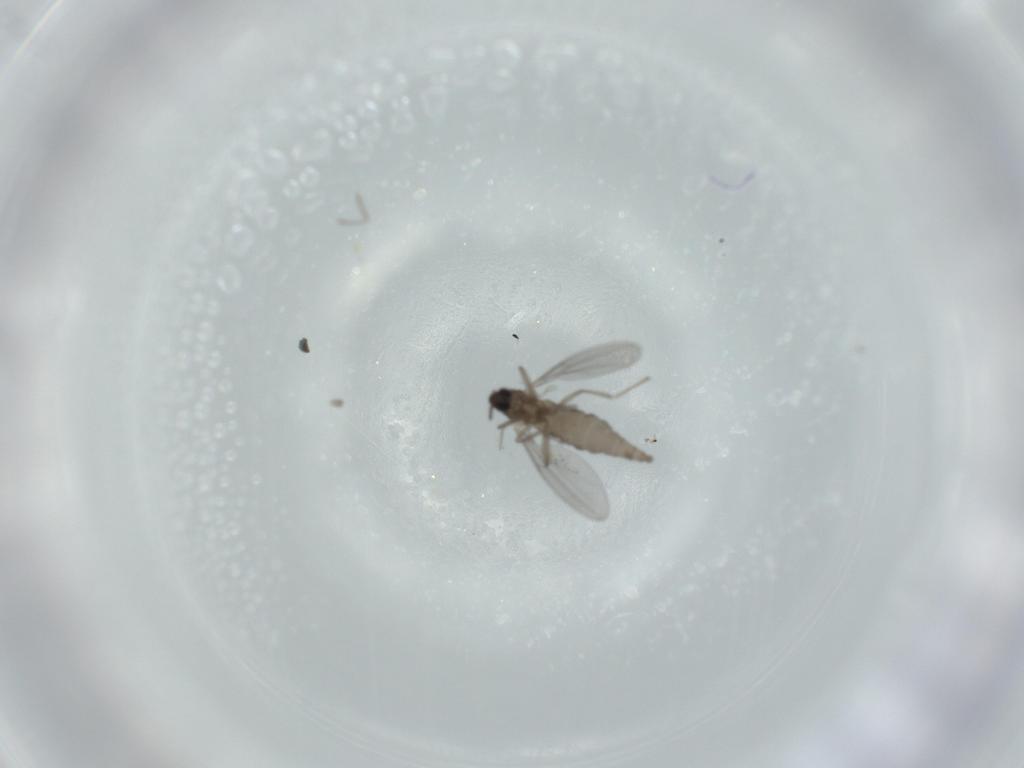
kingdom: Animalia
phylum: Arthropoda
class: Insecta
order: Diptera
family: Cecidomyiidae
